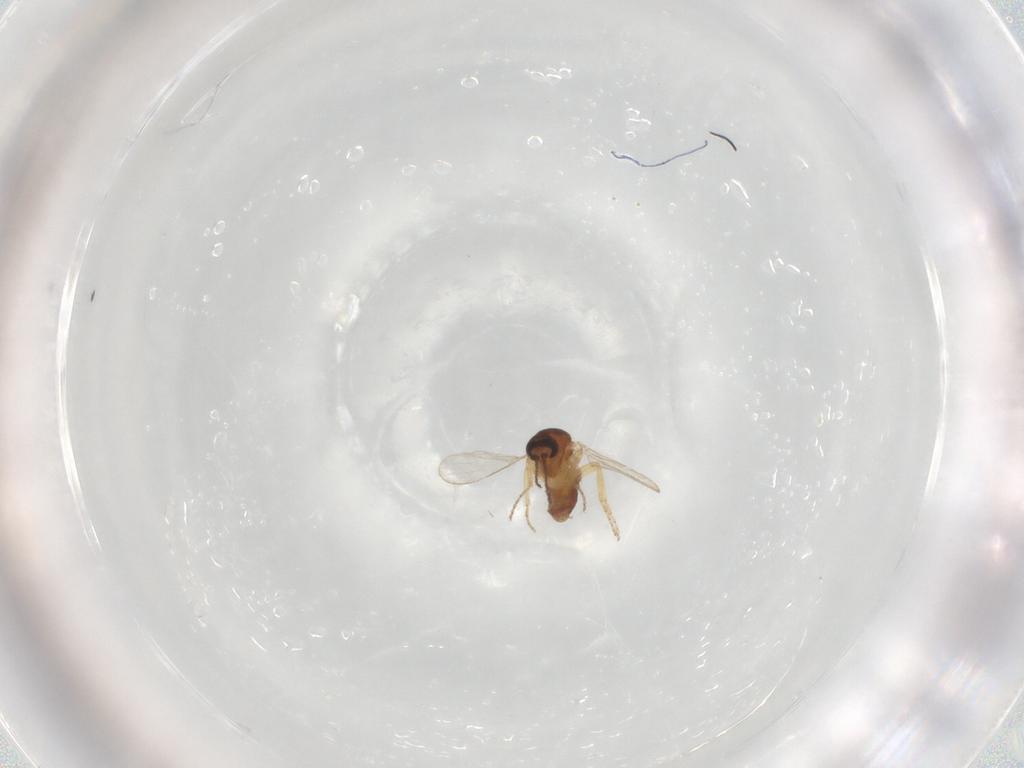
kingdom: Animalia
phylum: Arthropoda
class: Insecta
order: Diptera
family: Ceratopogonidae
